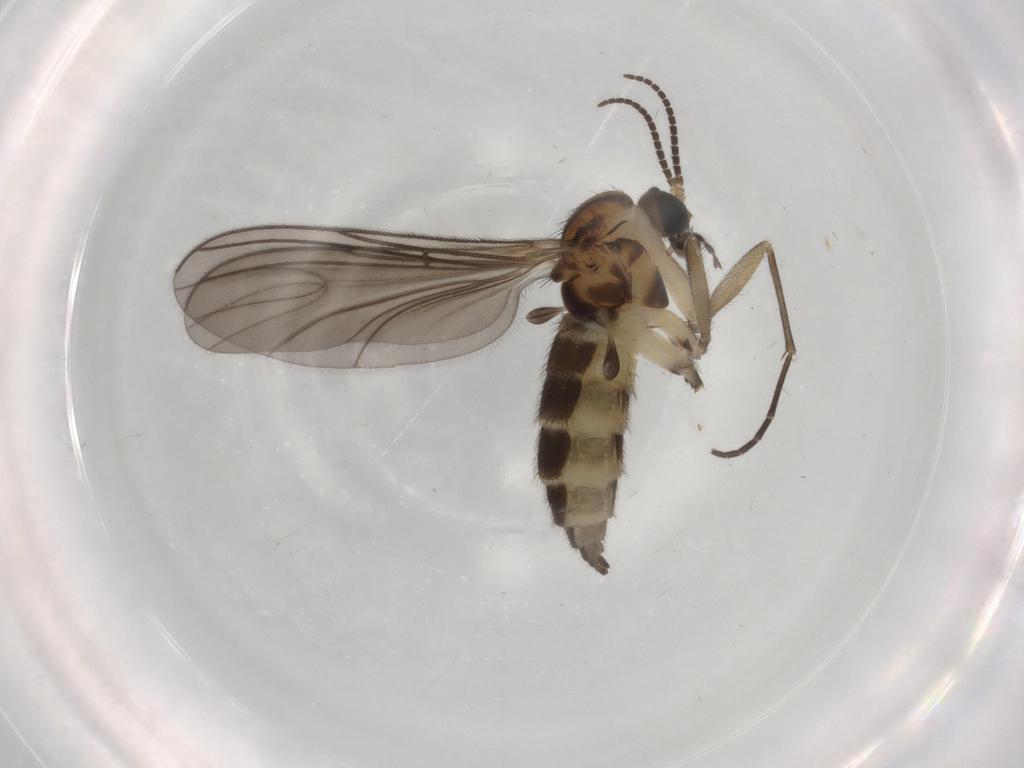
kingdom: Animalia
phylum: Arthropoda
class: Insecta
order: Diptera
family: Sciaridae
